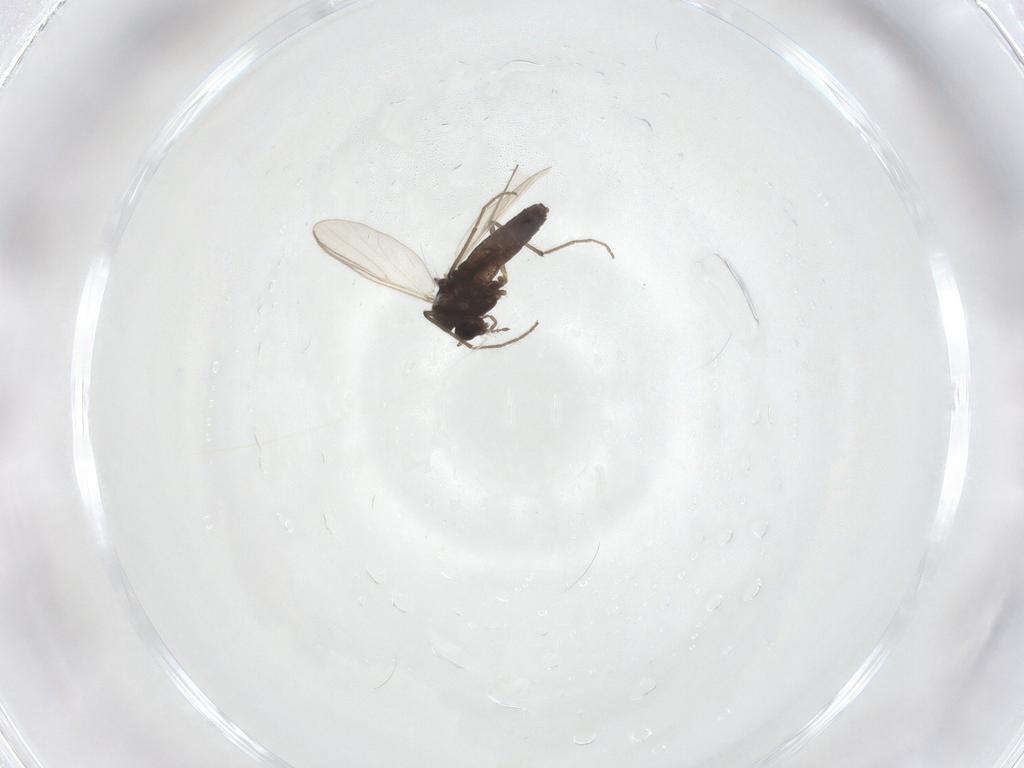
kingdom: Animalia
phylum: Arthropoda
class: Insecta
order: Diptera
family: Chironomidae
